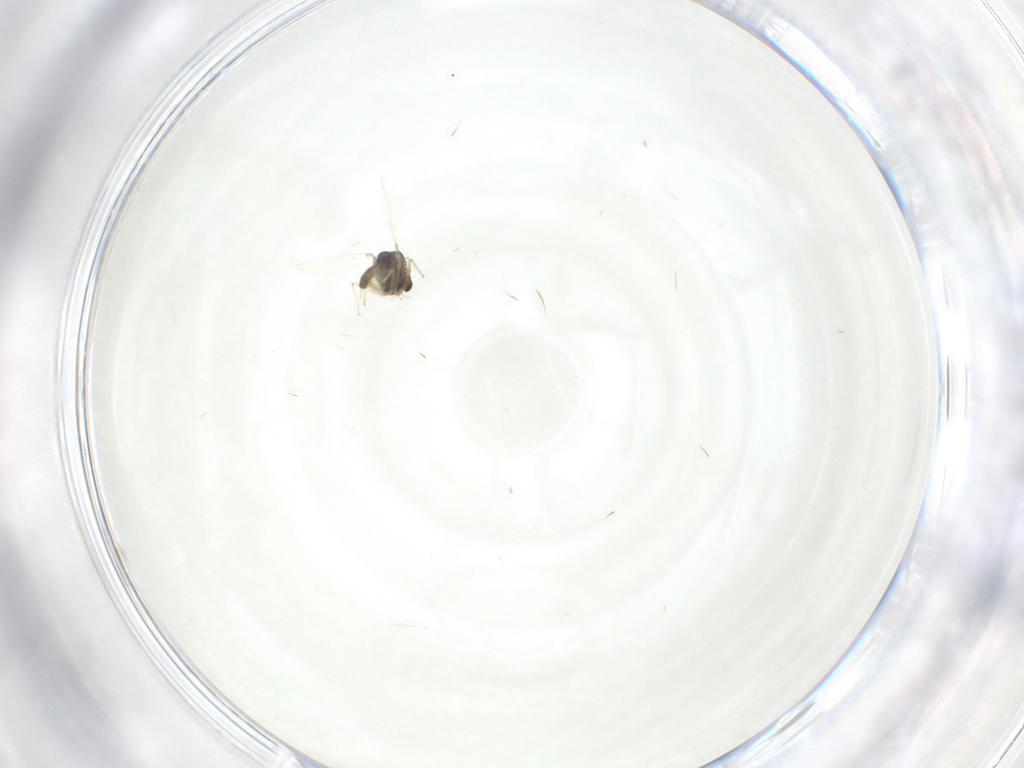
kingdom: Animalia
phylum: Arthropoda
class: Insecta
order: Diptera
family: Chironomidae
